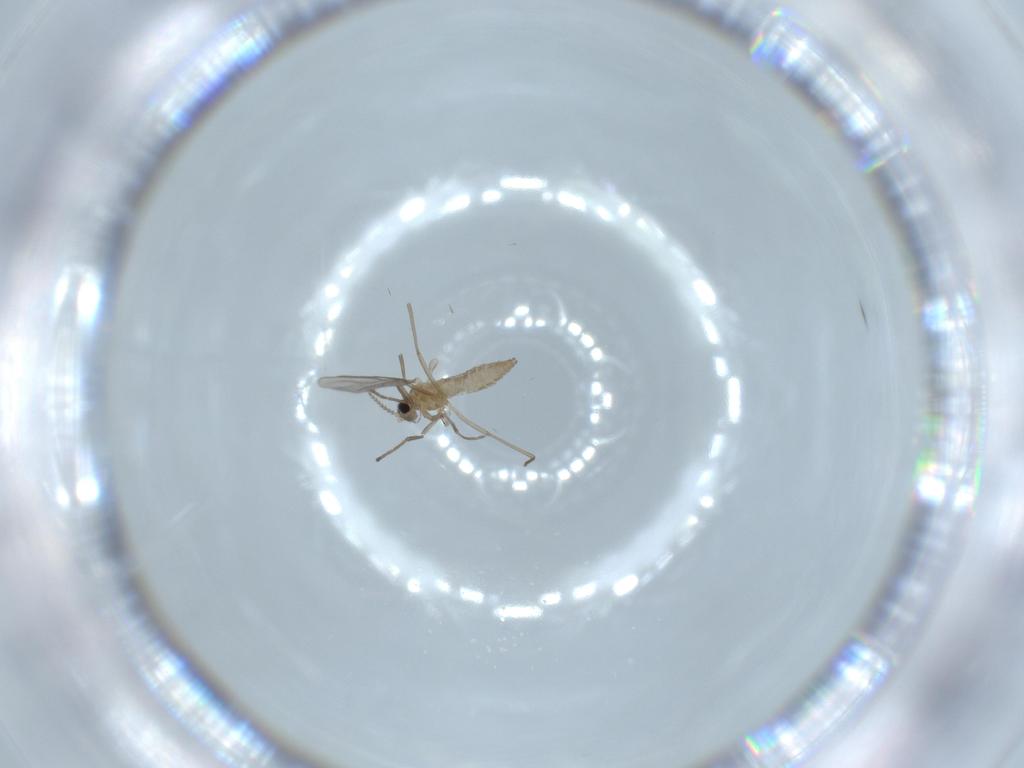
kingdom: Animalia
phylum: Arthropoda
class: Insecta
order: Diptera
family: Cecidomyiidae
